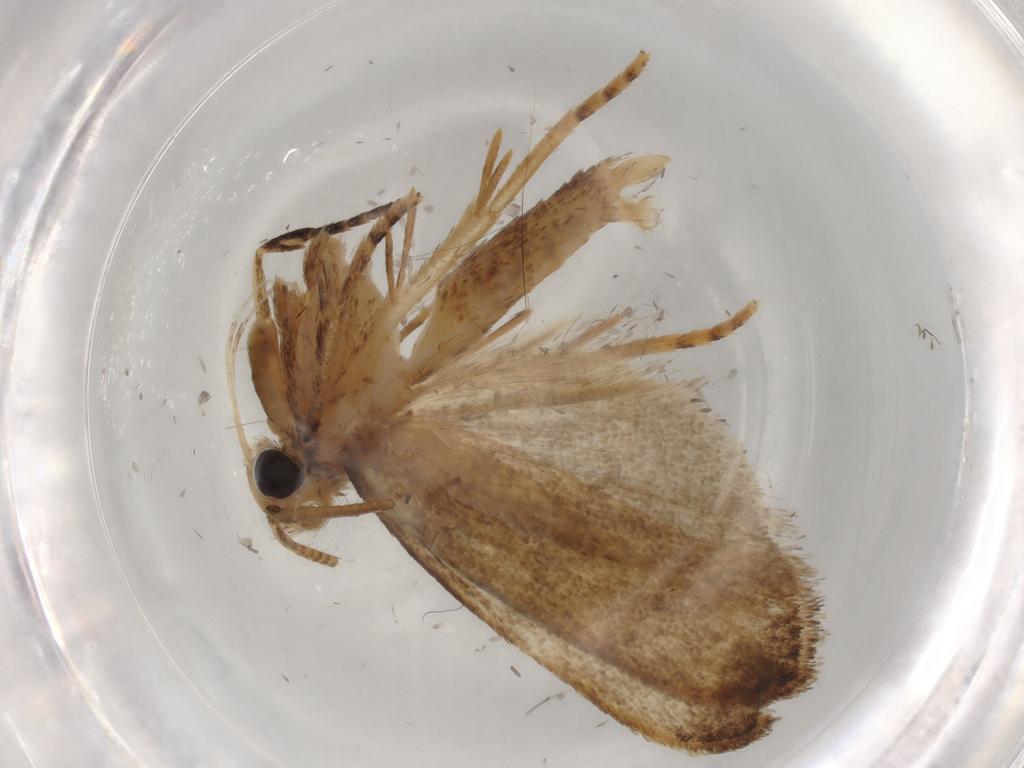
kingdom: Animalia
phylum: Arthropoda
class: Insecta
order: Lepidoptera
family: Autostichidae
